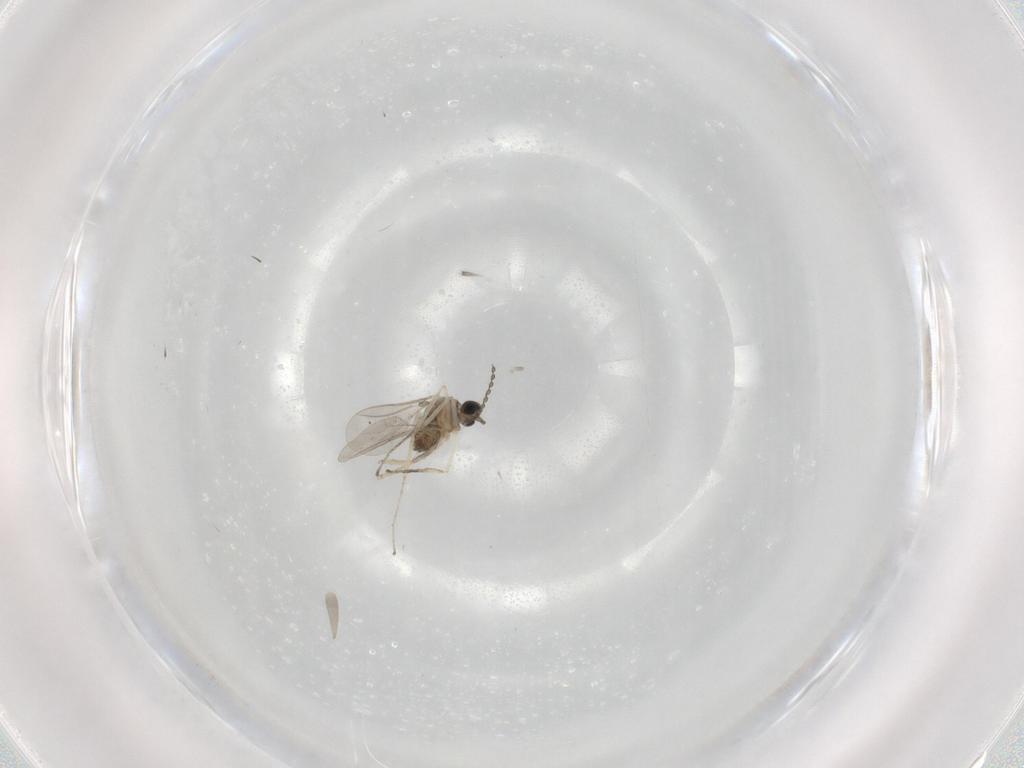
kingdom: Animalia
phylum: Arthropoda
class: Insecta
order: Diptera
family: Cecidomyiidae
